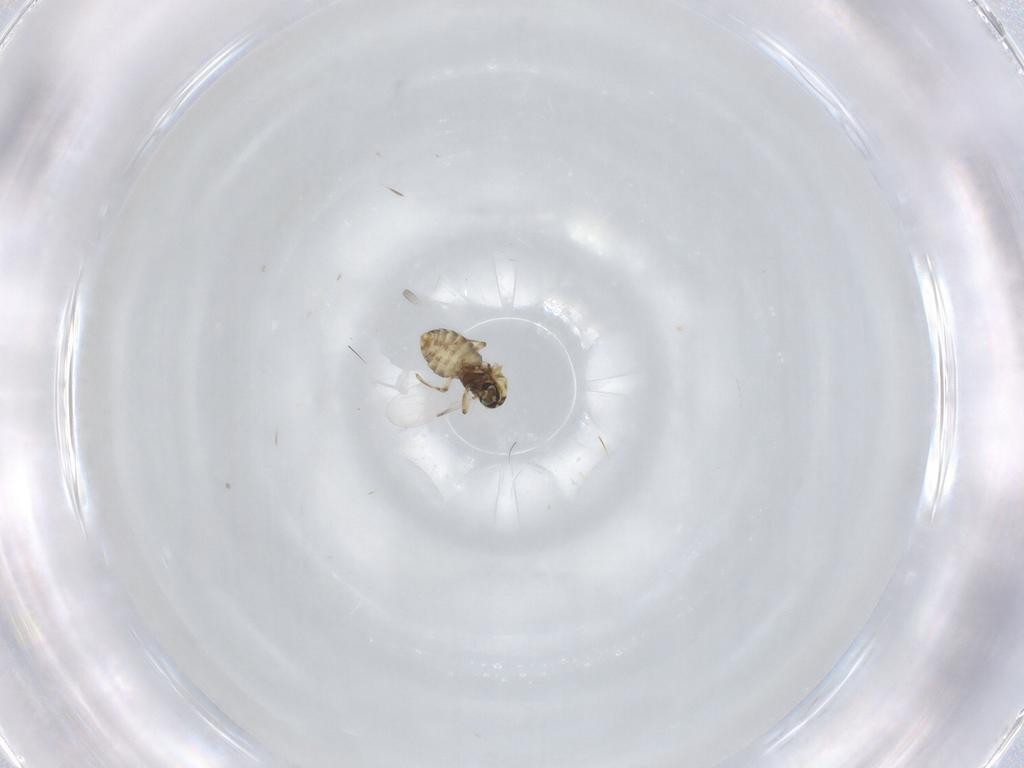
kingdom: Animalia
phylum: Arthropoda
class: Insecta
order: Diptera
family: Ceratopogonidae
